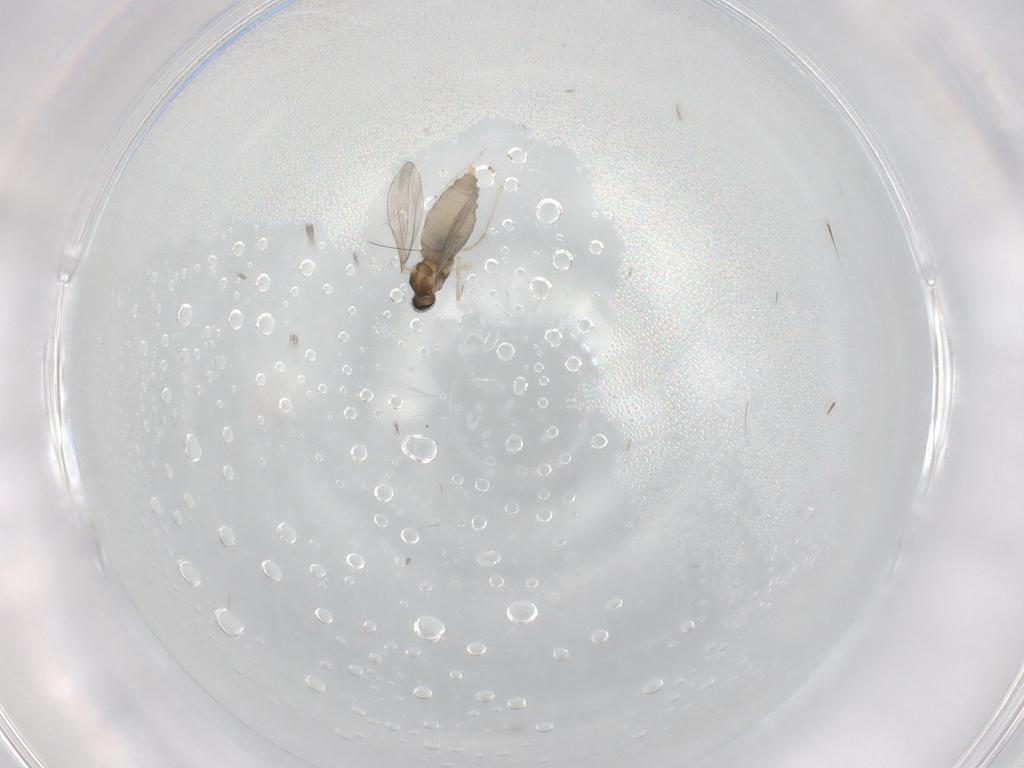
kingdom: Animalia
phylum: Arthropoda
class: Insecta
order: Diptera
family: Cecidomyiidae
